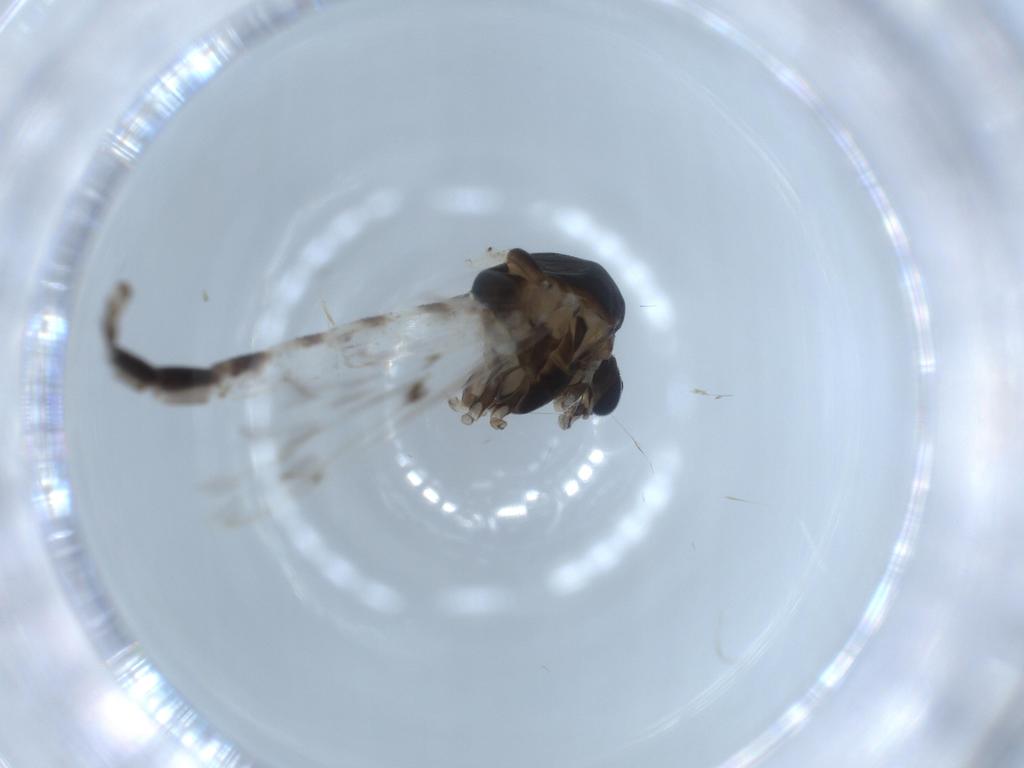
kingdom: Animalia
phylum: Arthropoda
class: Insecta
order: Diptera
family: Chironomidae
